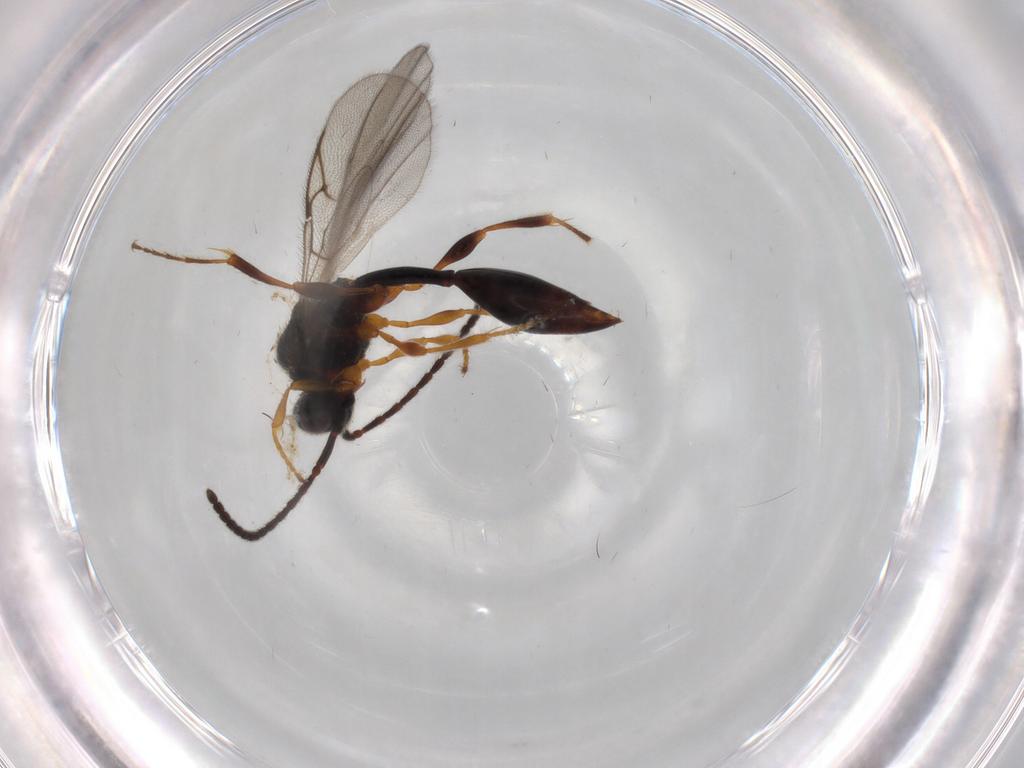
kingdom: Animalia
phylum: Arthropoda
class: Insecta
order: Hymenoptera
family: Diapriidae
